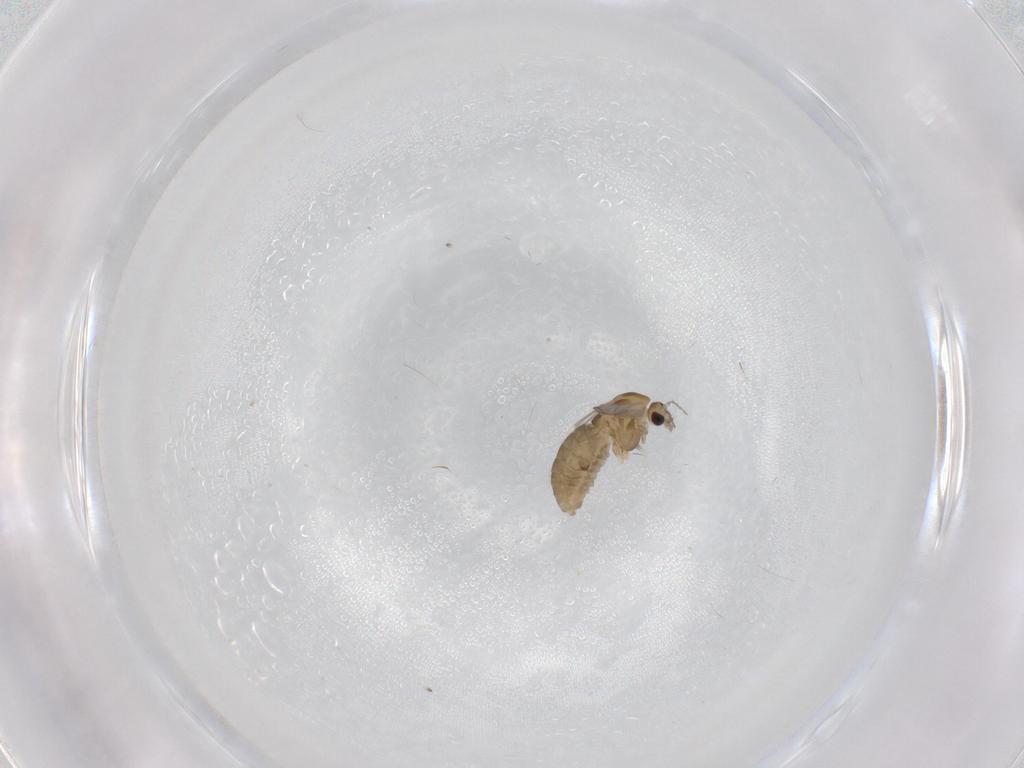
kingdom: Animalia
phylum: Arthropoda
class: Insecta
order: Diptera
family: Chironomidae
